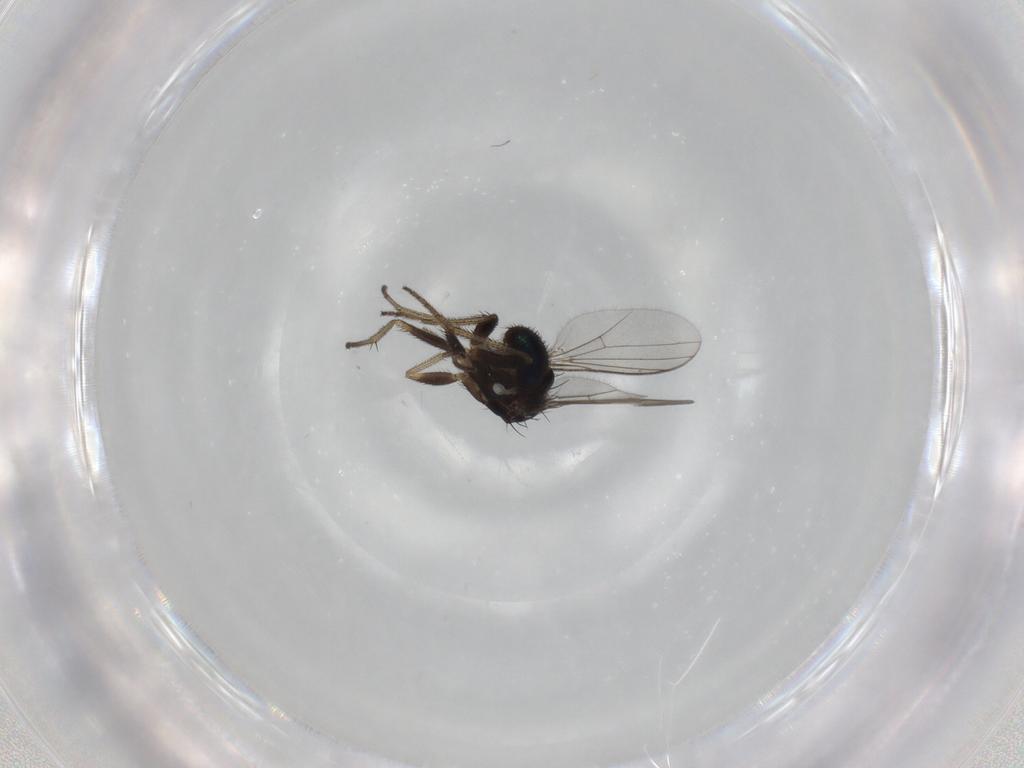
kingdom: Animalia
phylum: Arthropoda
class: Insecta
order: Diptera
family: Dolichopodidae
